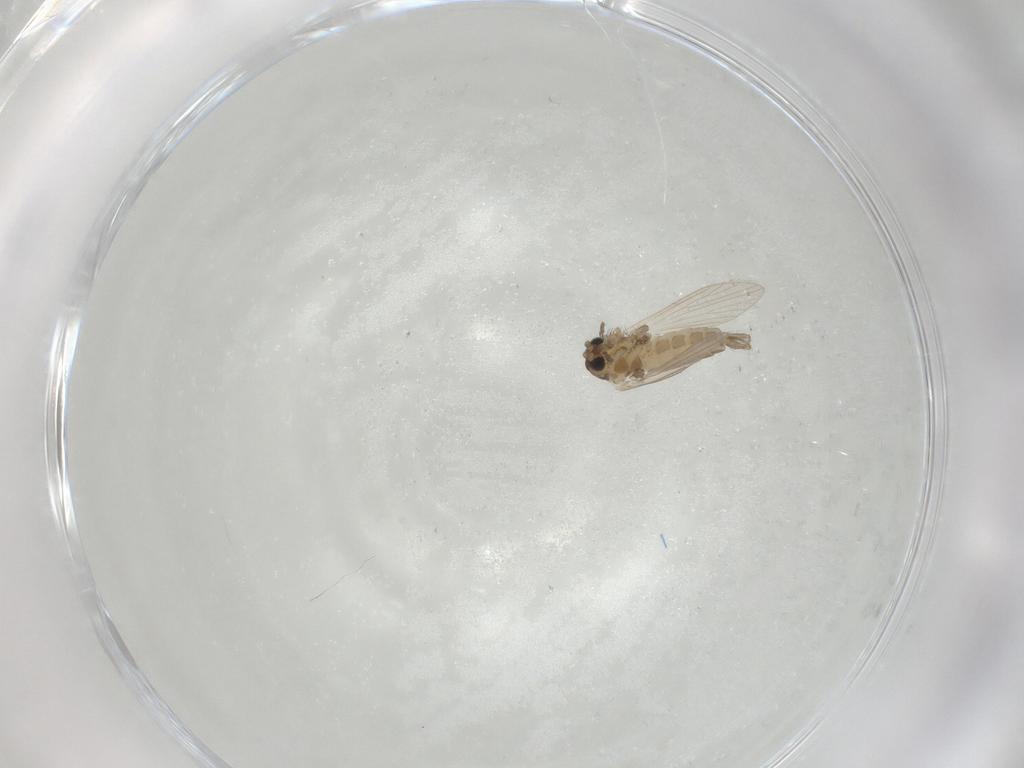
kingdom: Animalia
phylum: Arthropoda
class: Insecta
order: Diptera
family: Psychodidae
